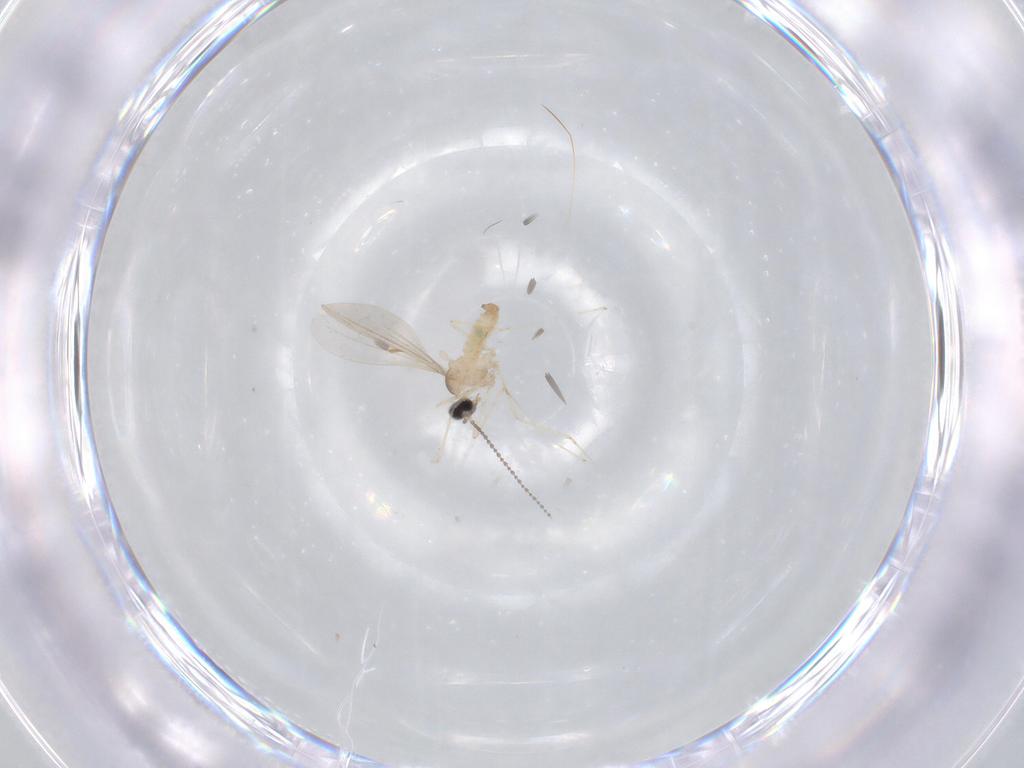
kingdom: Animalia
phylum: Arthropoda
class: Insecta
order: Diptera
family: Cecidomyiidae
